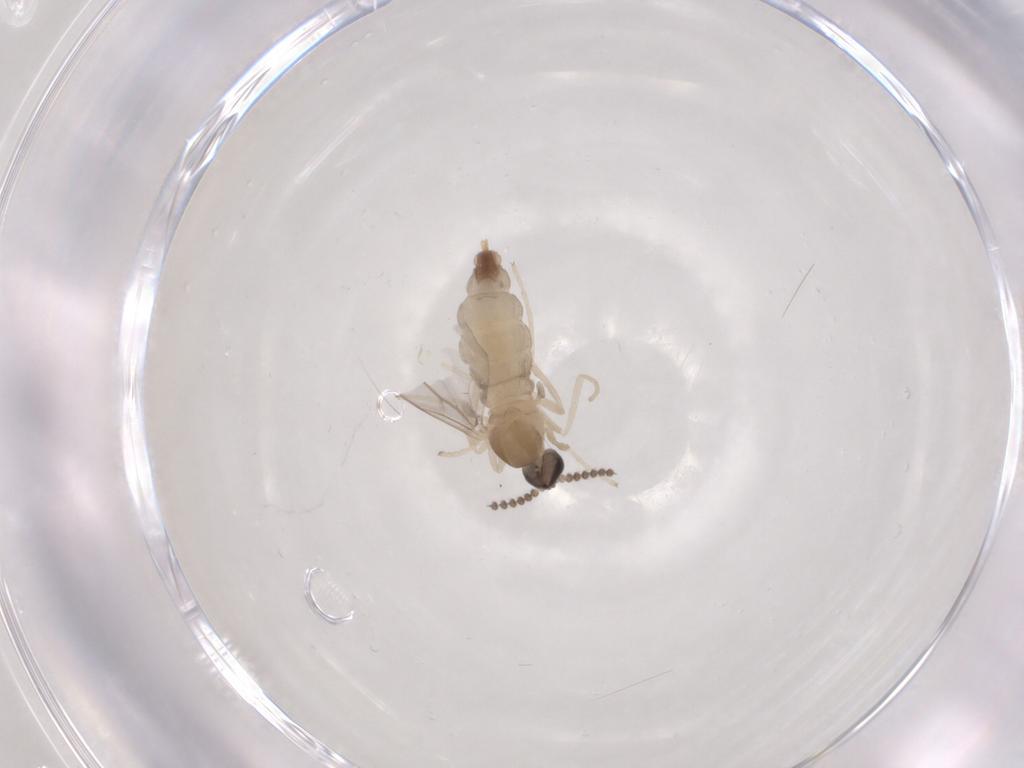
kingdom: Animalia
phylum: Arthropoda
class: Insecta
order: Diptera
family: Cecidomyiidae
